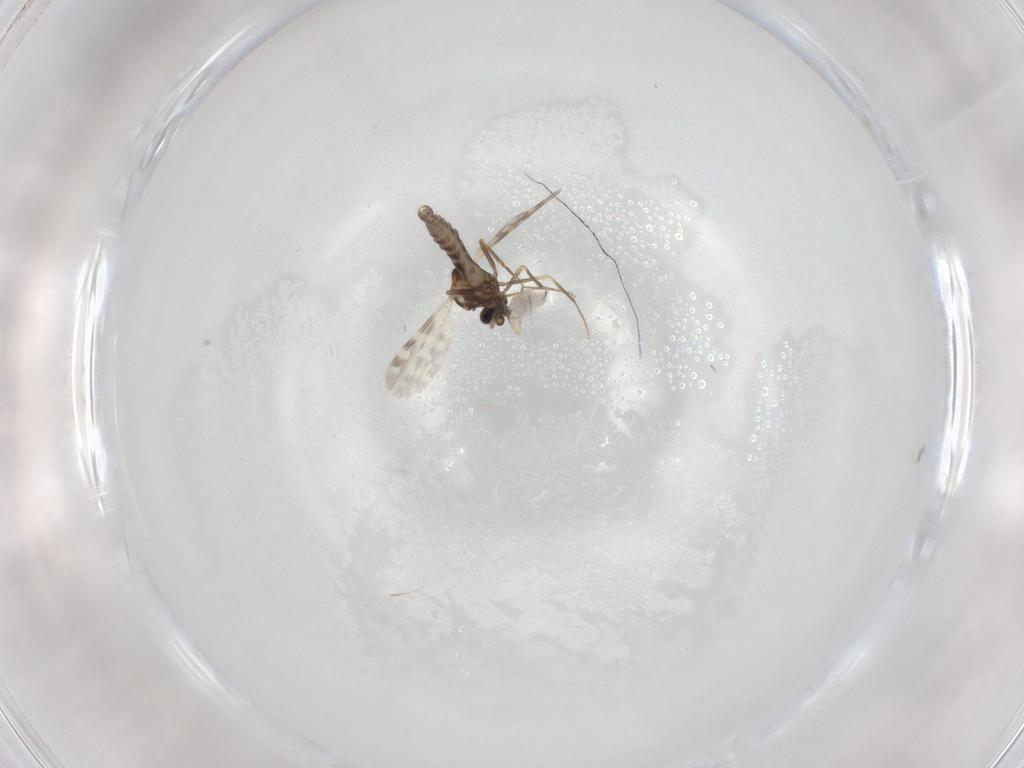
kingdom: Animalia
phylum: Arthropoda
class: Insecta
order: Diptera
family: Ceratopogonidae
